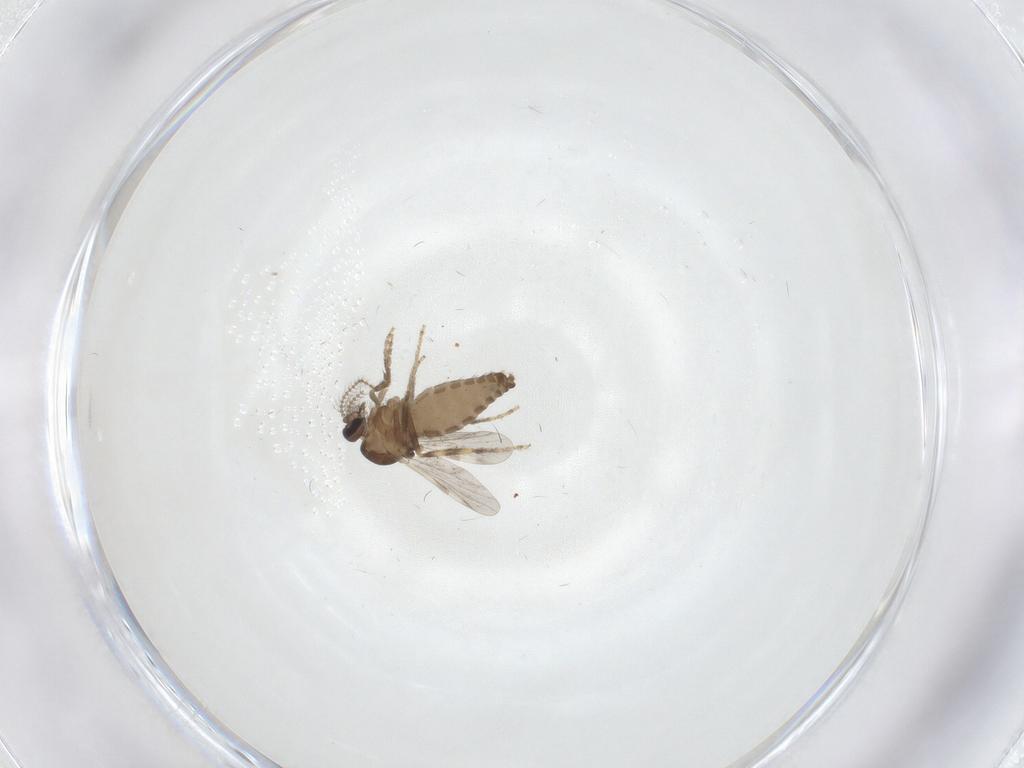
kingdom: Animalia
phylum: Arthropoda
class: Insecta
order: Diptera
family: Ceratopogonidae
